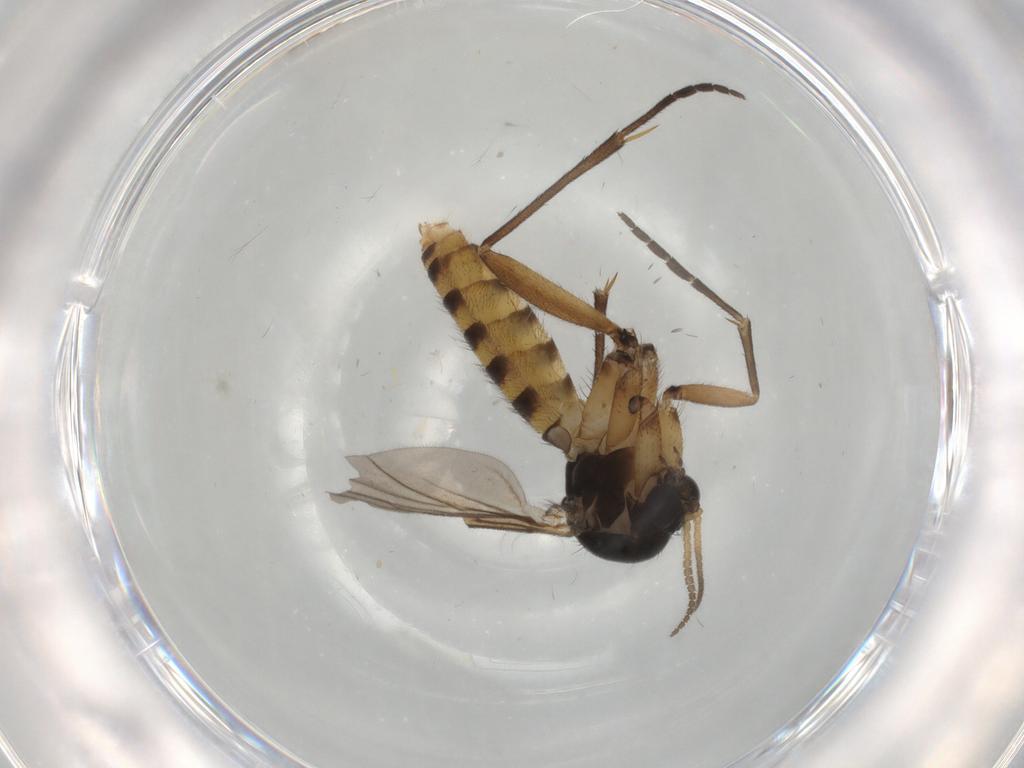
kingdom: Animalia
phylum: Arthropoda
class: Insecta
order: Diptera
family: Mycetophilidae
